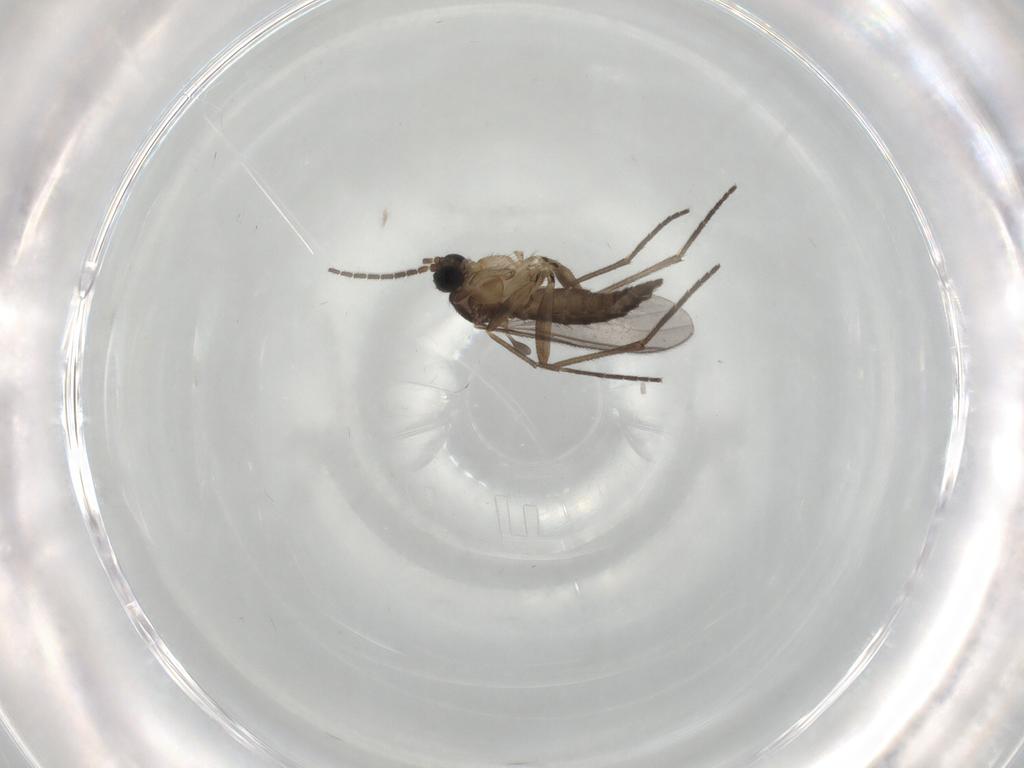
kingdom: Animalia
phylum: Arthropoda
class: Insecta
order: Diptera
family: Sciaridae
